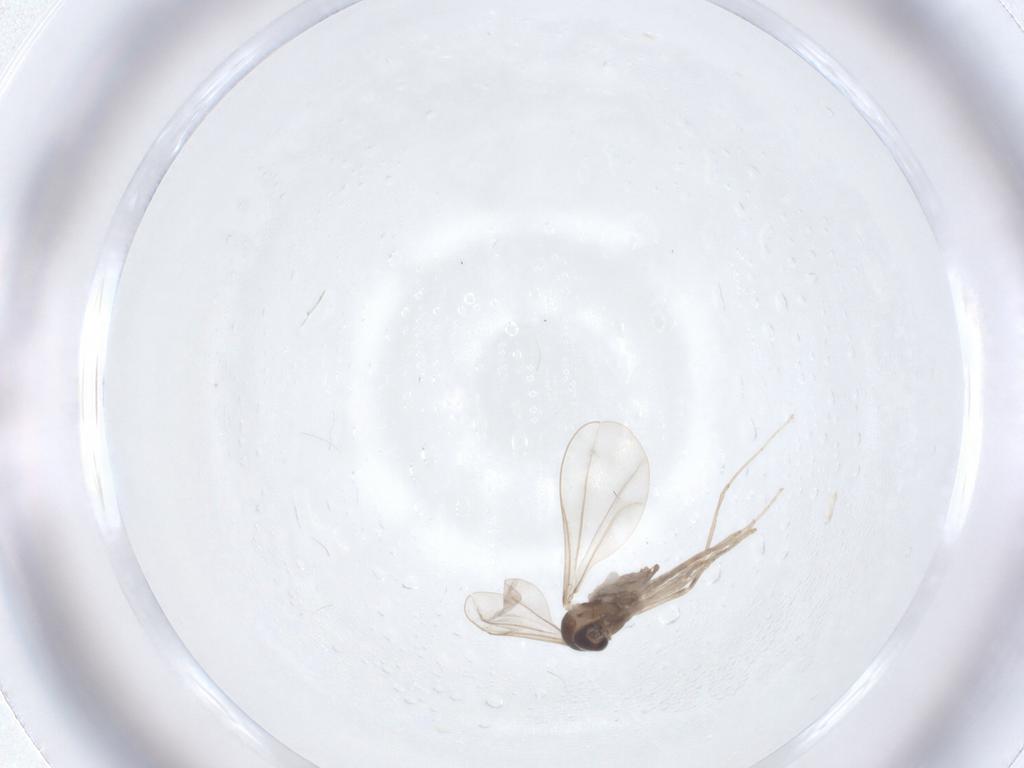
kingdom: Animalia
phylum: Arthropoda
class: Insecta
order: Diptera
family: Cecidomyiidae
